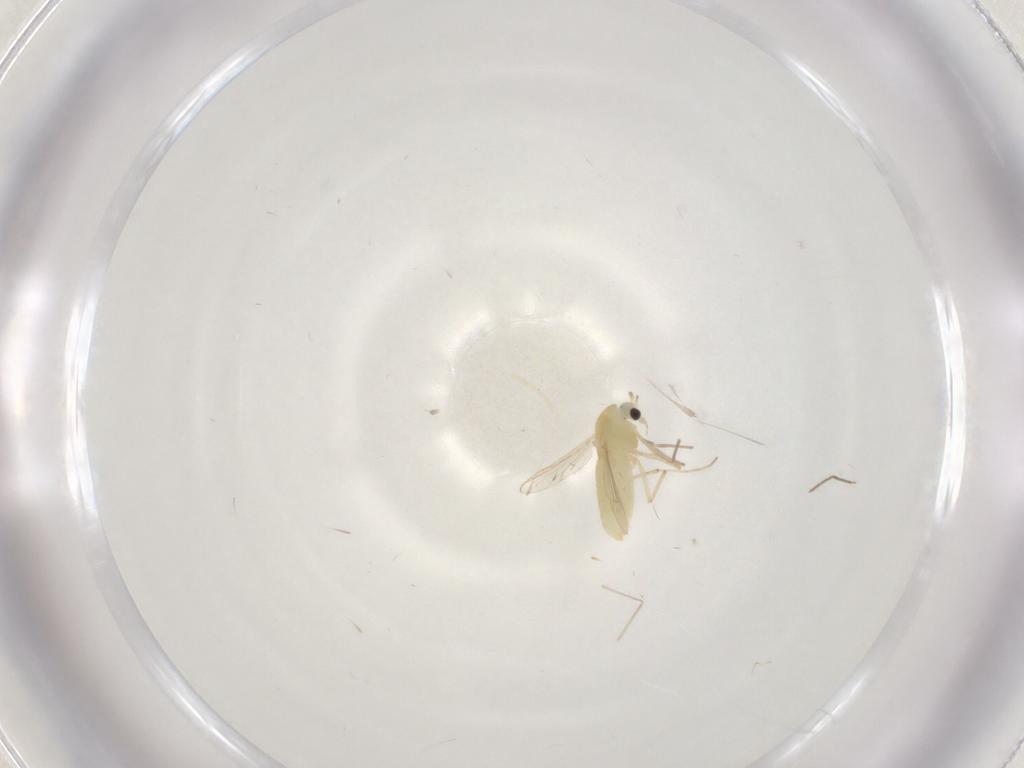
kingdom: Animalia
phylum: Arthropoda
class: Insecta
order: Diptera
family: Chironomidae
